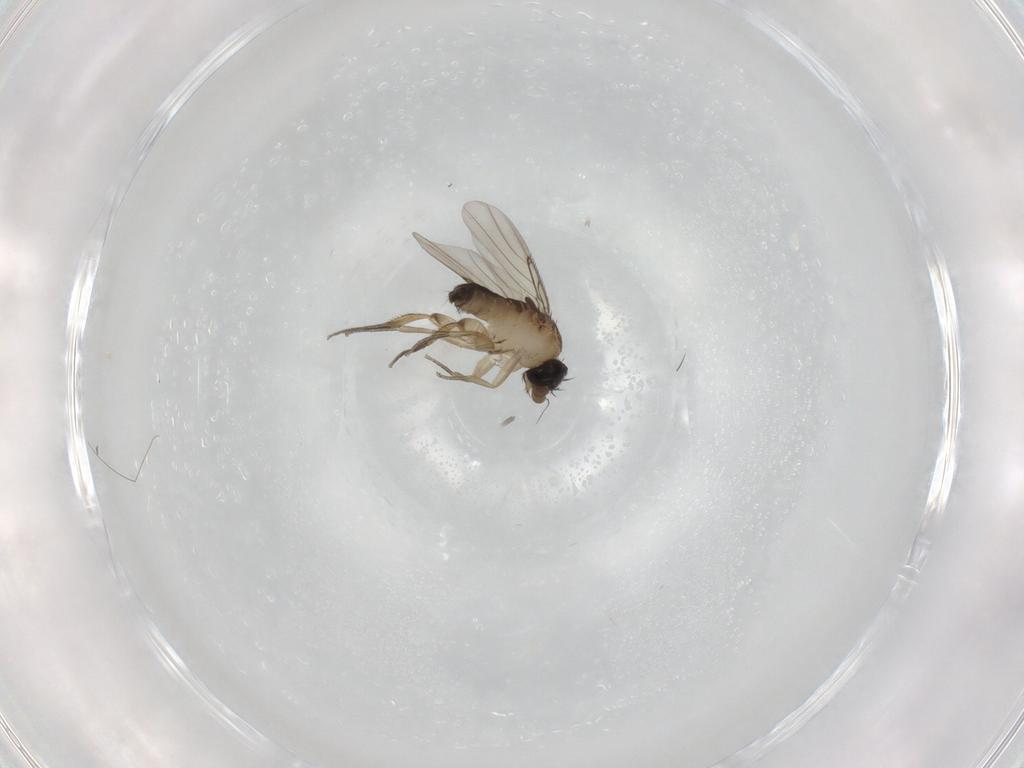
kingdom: Animalia
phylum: Arthropoda
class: Insecta
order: Diptera
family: Phoridae
